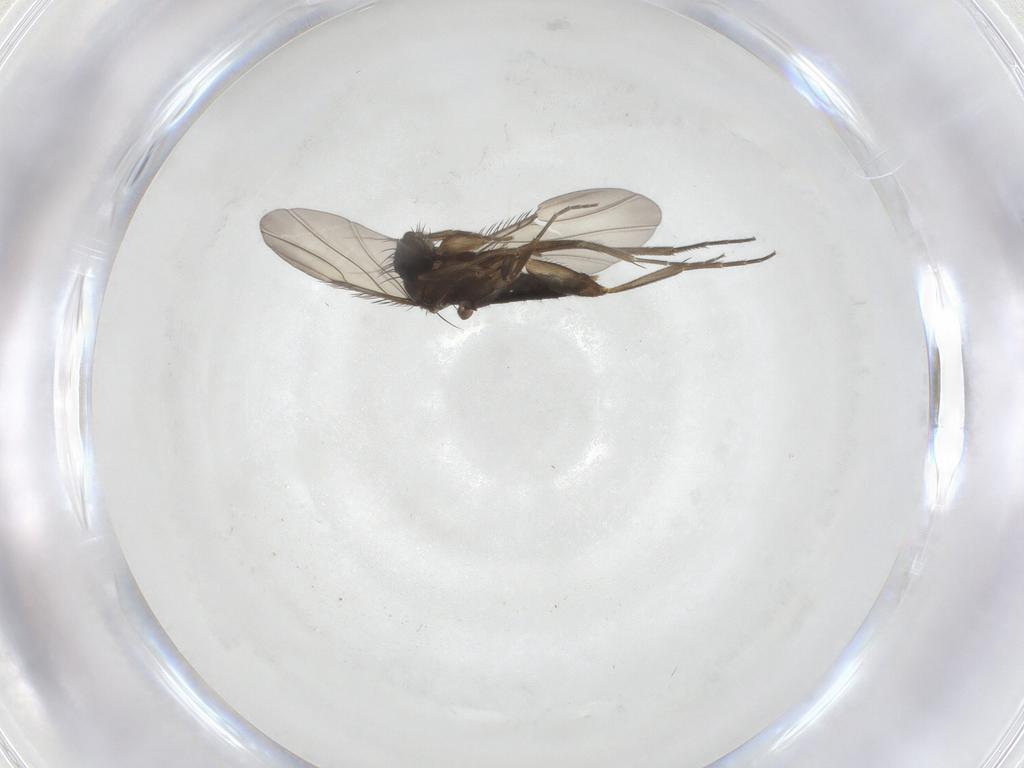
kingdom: Animalia
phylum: Arthropoda
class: Insecta
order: Diptera
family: Phoridae
